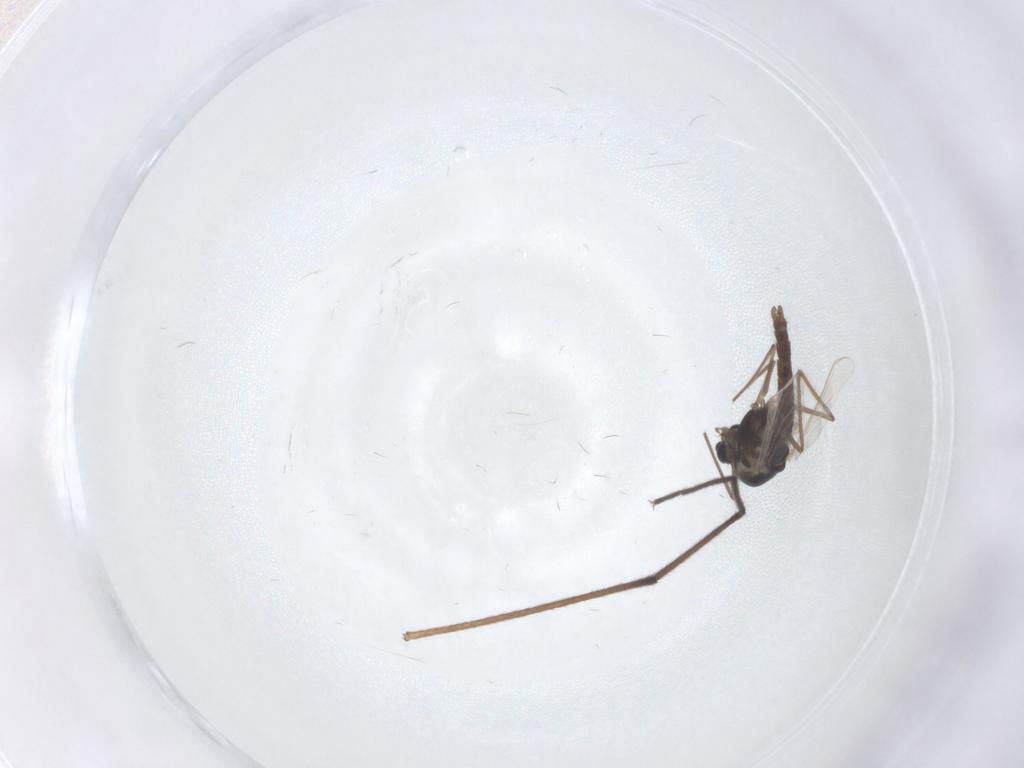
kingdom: Animalia
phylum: Arthropoda
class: Insecta
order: Diptera
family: Chironomidae
